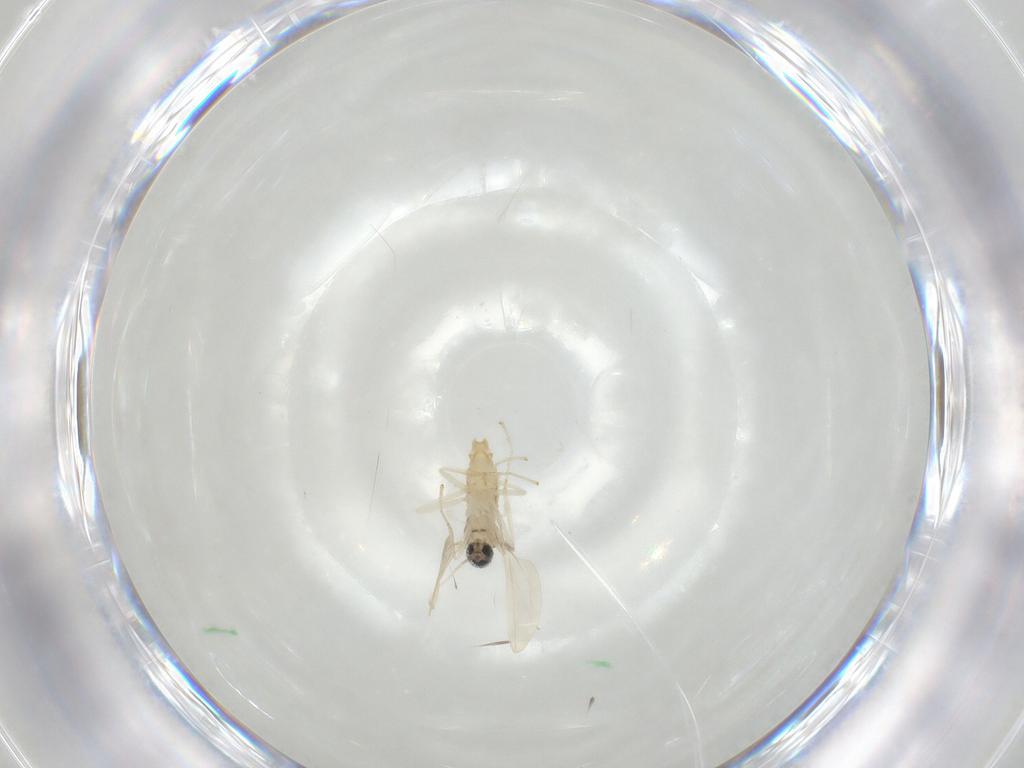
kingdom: Animalia
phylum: Arthropoda
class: Insecta
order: Diptera
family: Cecidomyiidae
